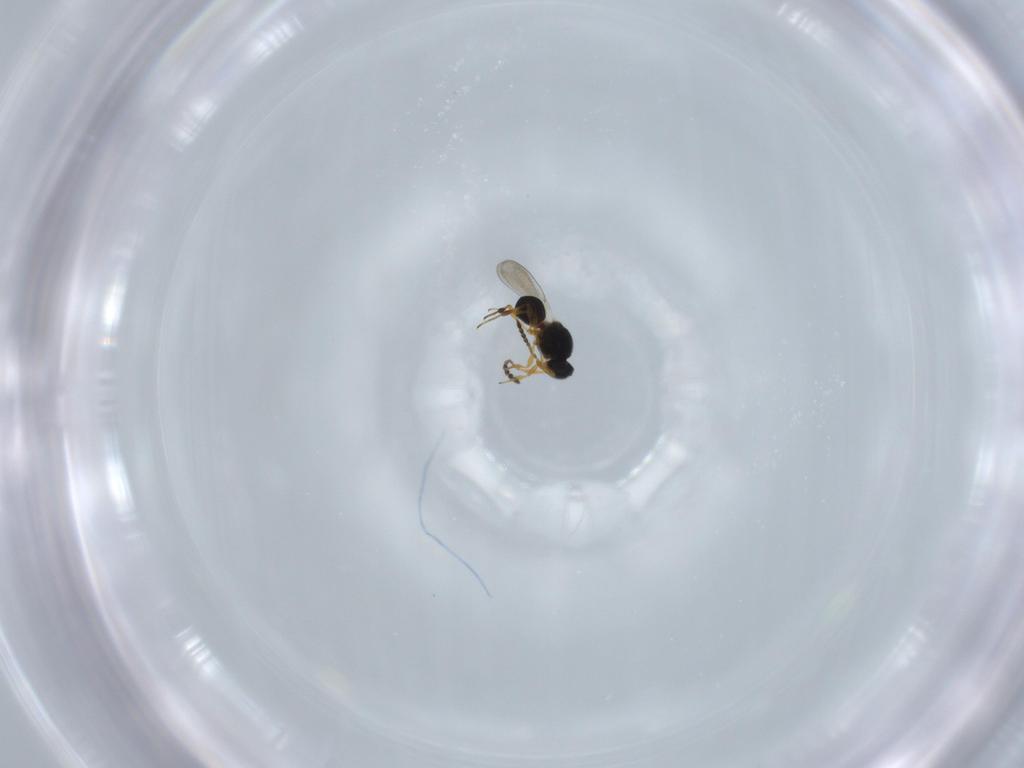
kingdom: Animalia
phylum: Arthropoda
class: Insecta
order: Hymenoptera
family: Platygastridae
